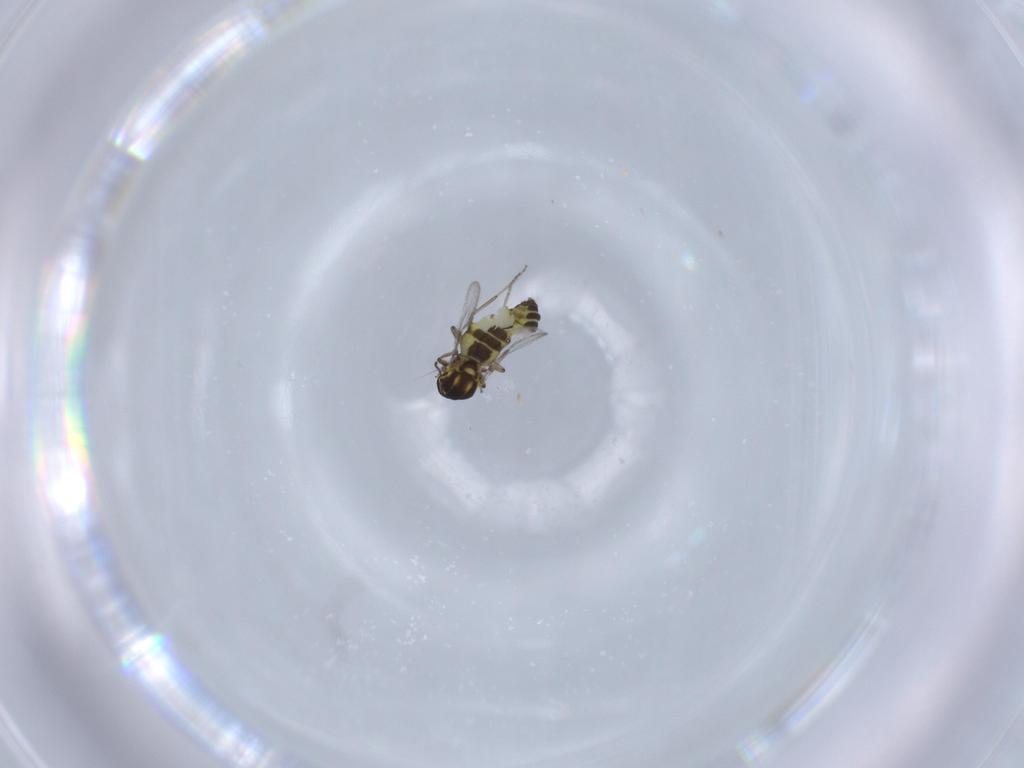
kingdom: Animalia
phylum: Arthropoda
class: Insecta
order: Diptera
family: Ceratopogonidae
